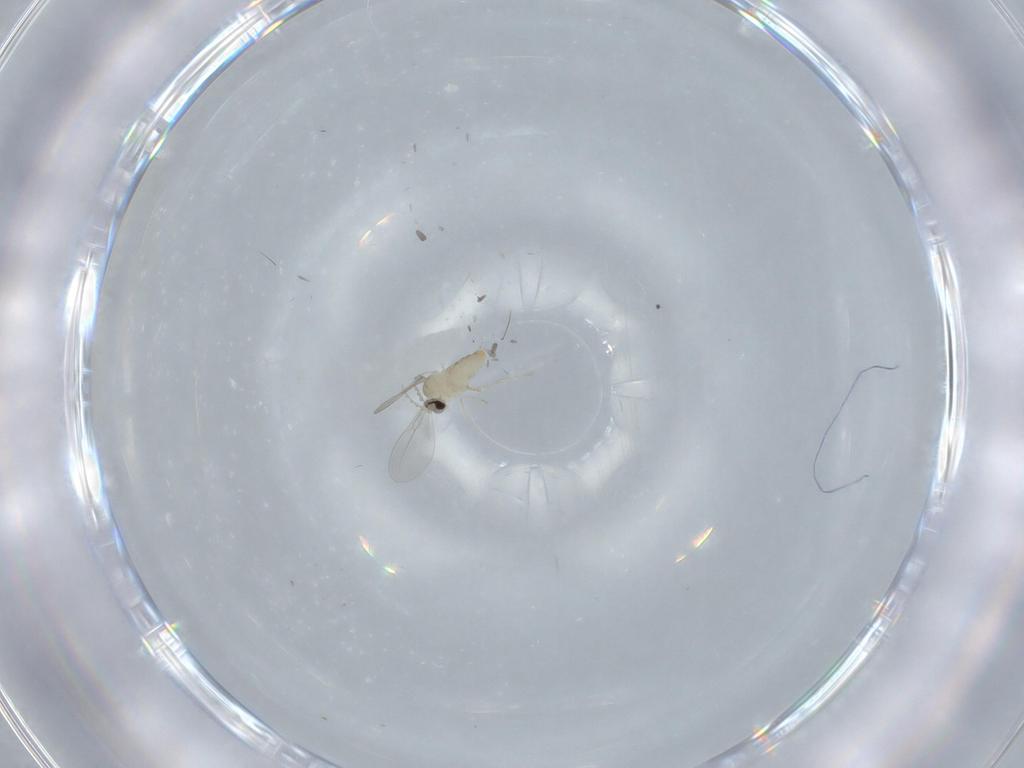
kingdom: Animalia
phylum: Arthropoda
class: Insecta
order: Diptera
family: Cecidomyiidae
